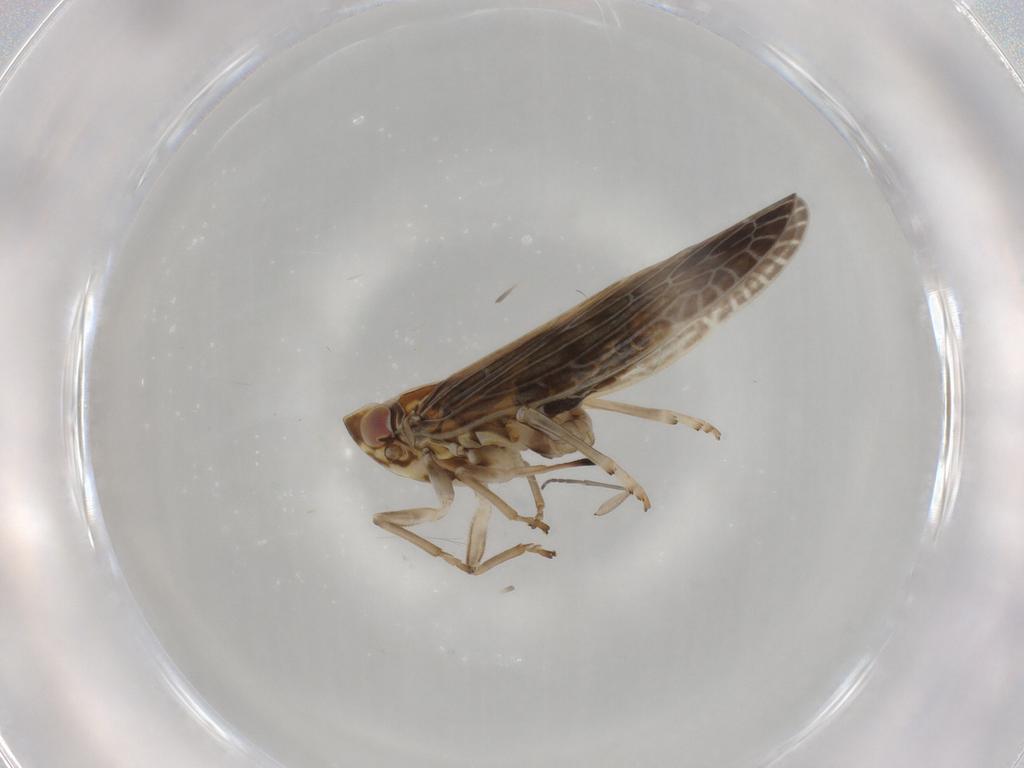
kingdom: Animalia
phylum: Arthropoda
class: Insecta
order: Hemiptera
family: Achilidae
